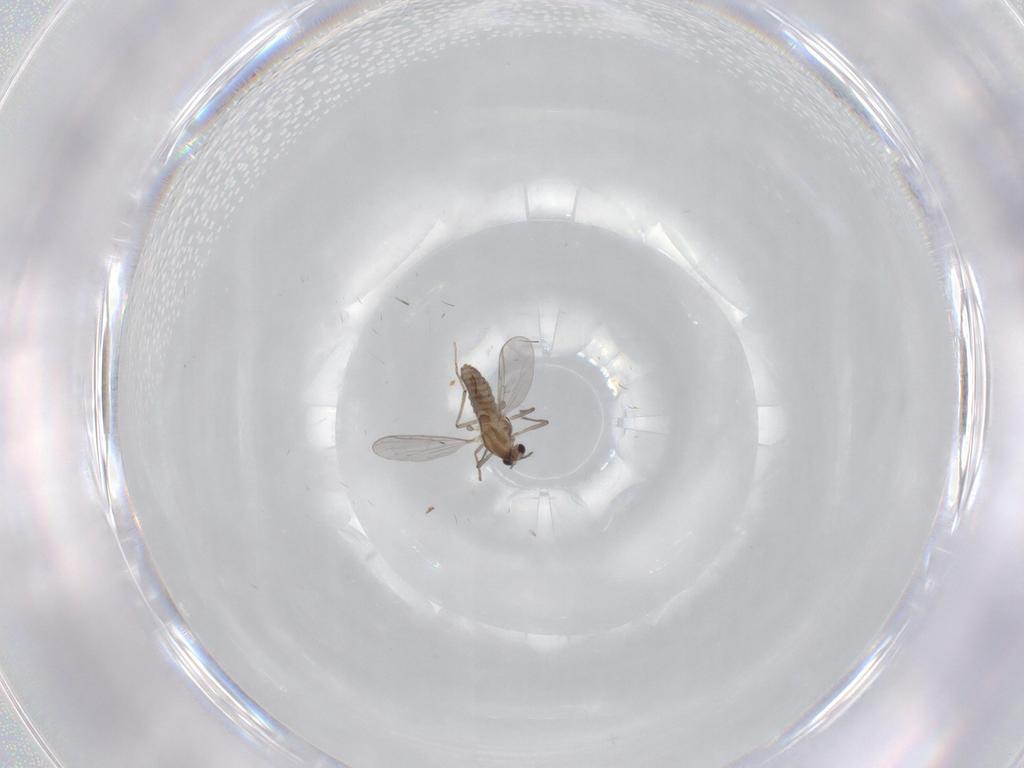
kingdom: Animalia
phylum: Arthropoda
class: Insecta
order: Diptera
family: Chironomidae
